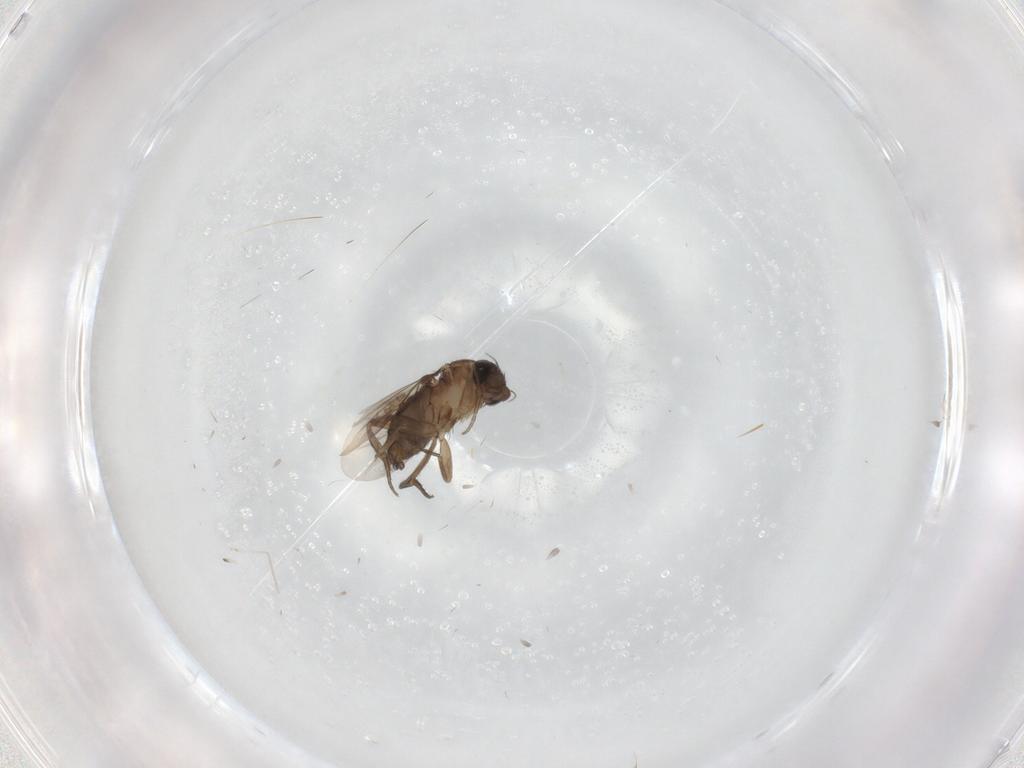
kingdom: Animalia
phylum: Arthropoda
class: Insecta
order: Diptera
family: Phoridae
